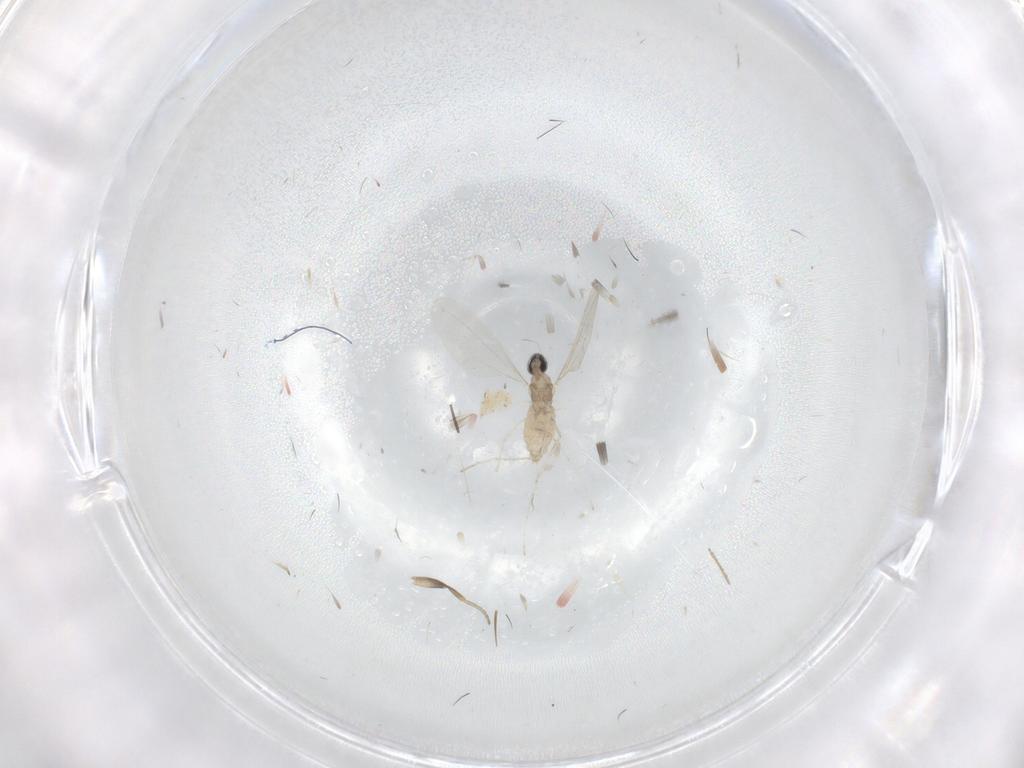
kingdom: Animalia
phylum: Arthropoda
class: Insecta
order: Diptera
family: Cecidomyiidae
